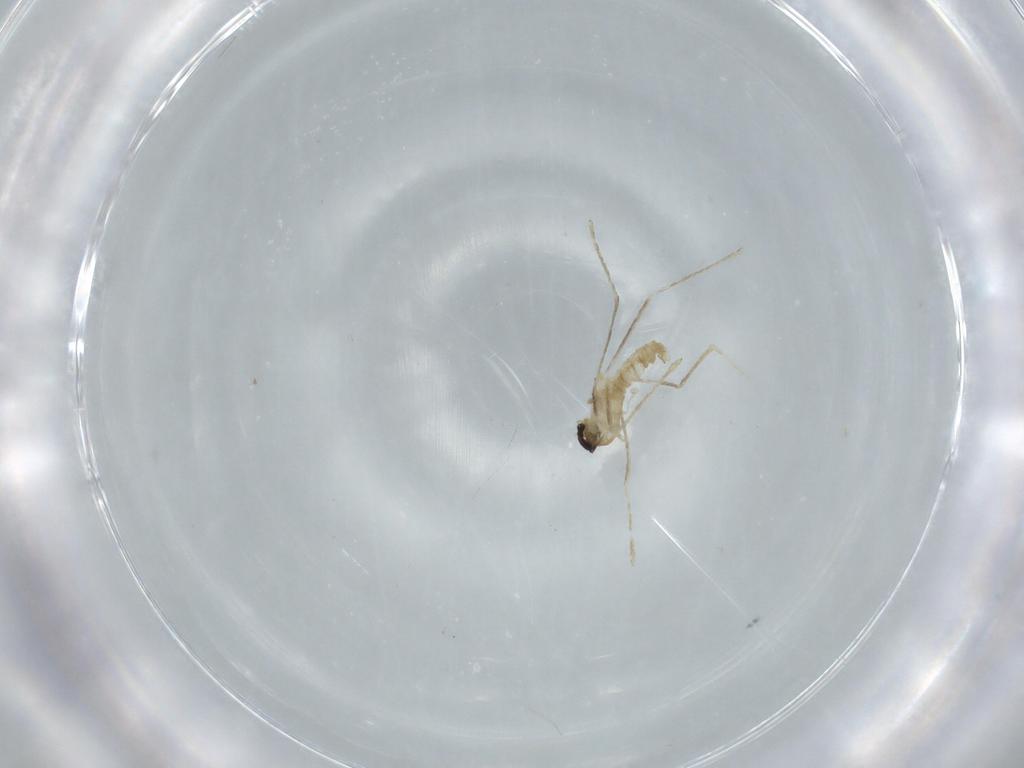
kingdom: Animalia
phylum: Arthropoda
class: Insecta
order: Diptera
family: Cecidomyiidae
